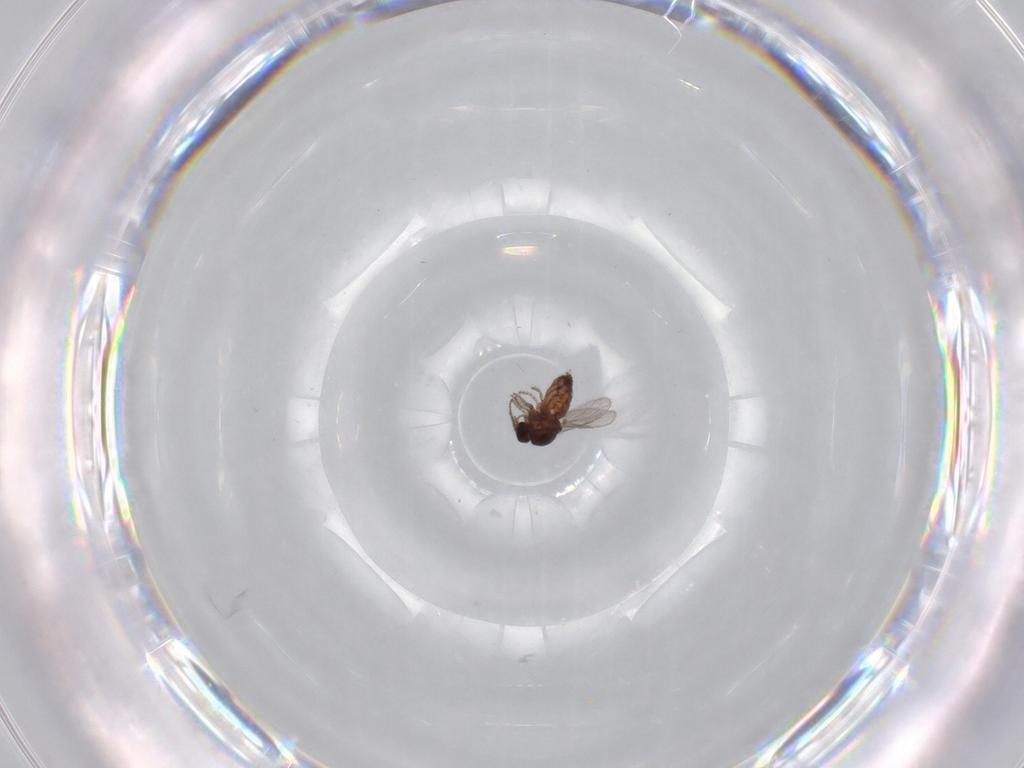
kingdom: Animalia
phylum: Arthropoda
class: Insecta
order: Diptera
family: Ceratopogonidae
